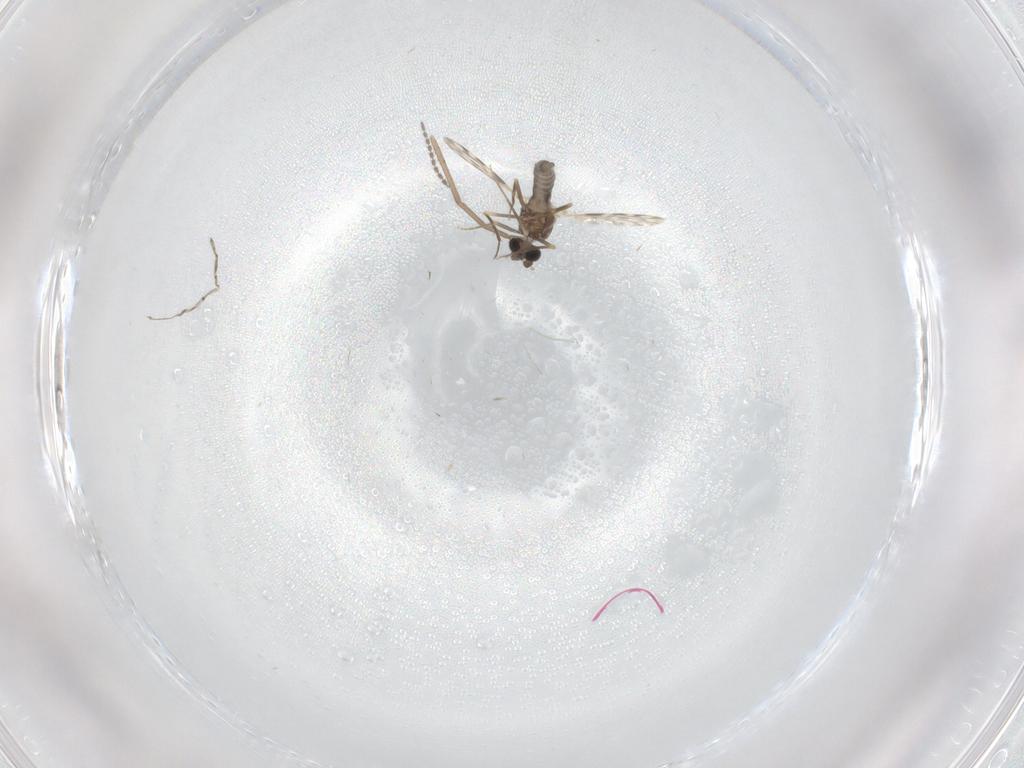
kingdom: Animalia
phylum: Arthropoda
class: Insecta
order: Diptera
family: Ceratopogonidae
